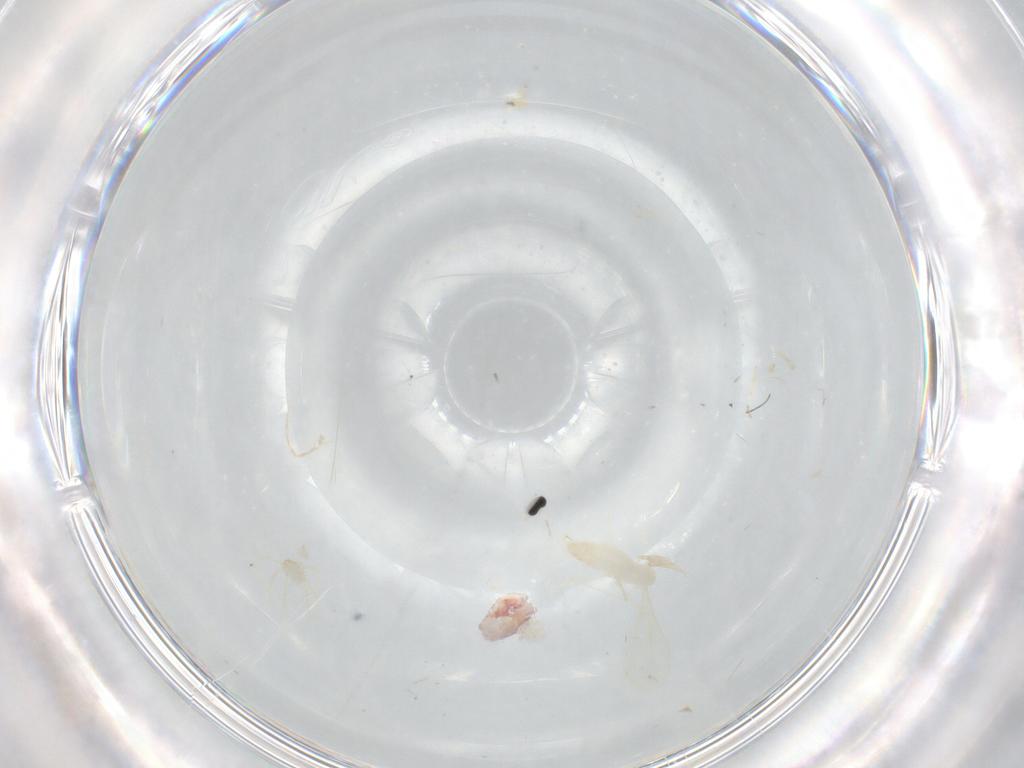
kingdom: Animalia
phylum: Arthropoda
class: Insecta
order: Diptera
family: Cecidomyiidae
